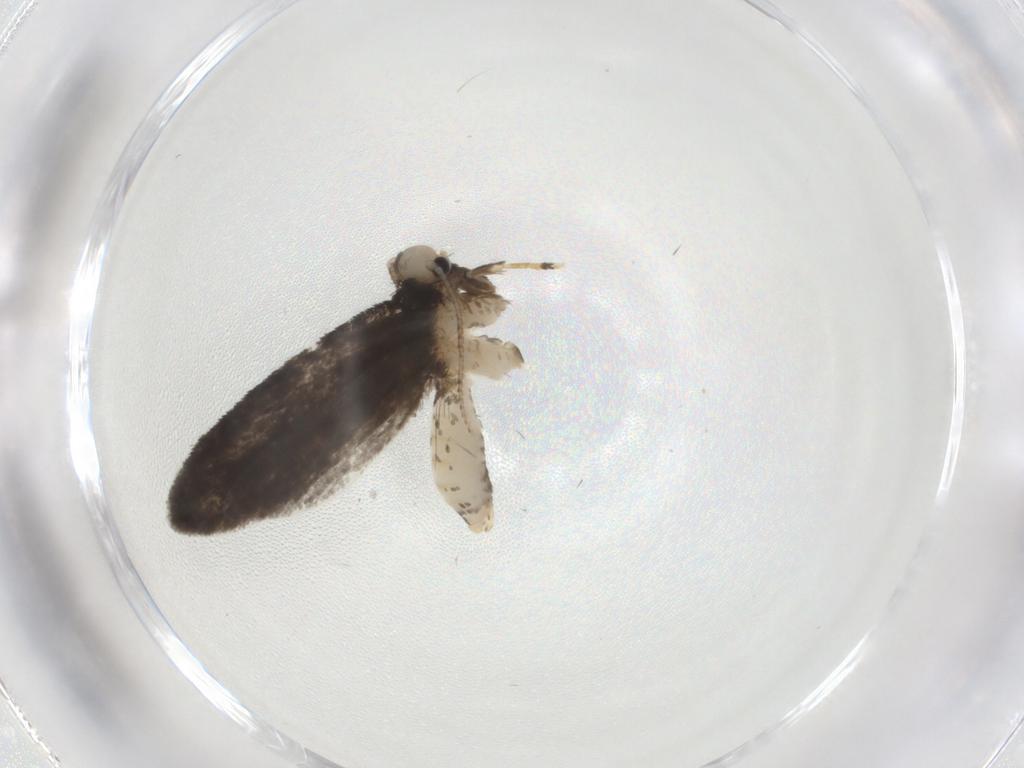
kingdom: Animalia
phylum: Arthropoda
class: Insecta
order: Lepidoptera
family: Psychidae
